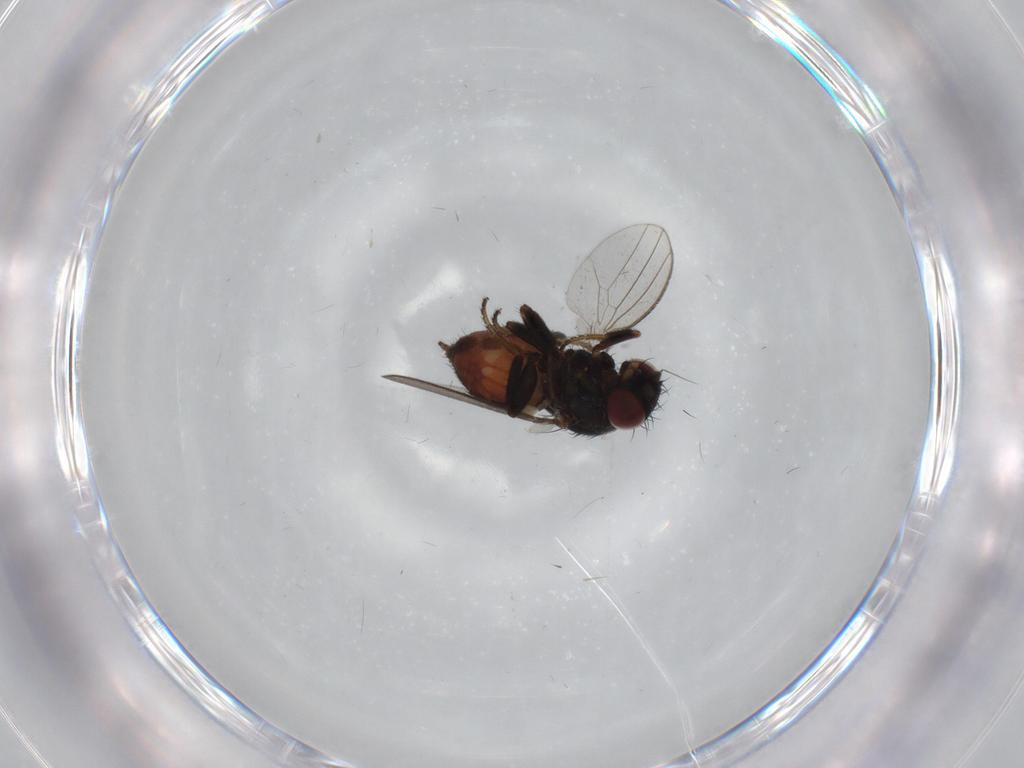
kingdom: Animalia
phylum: Arthropoda
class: Insecta
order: Diptera
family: Milichiidae
